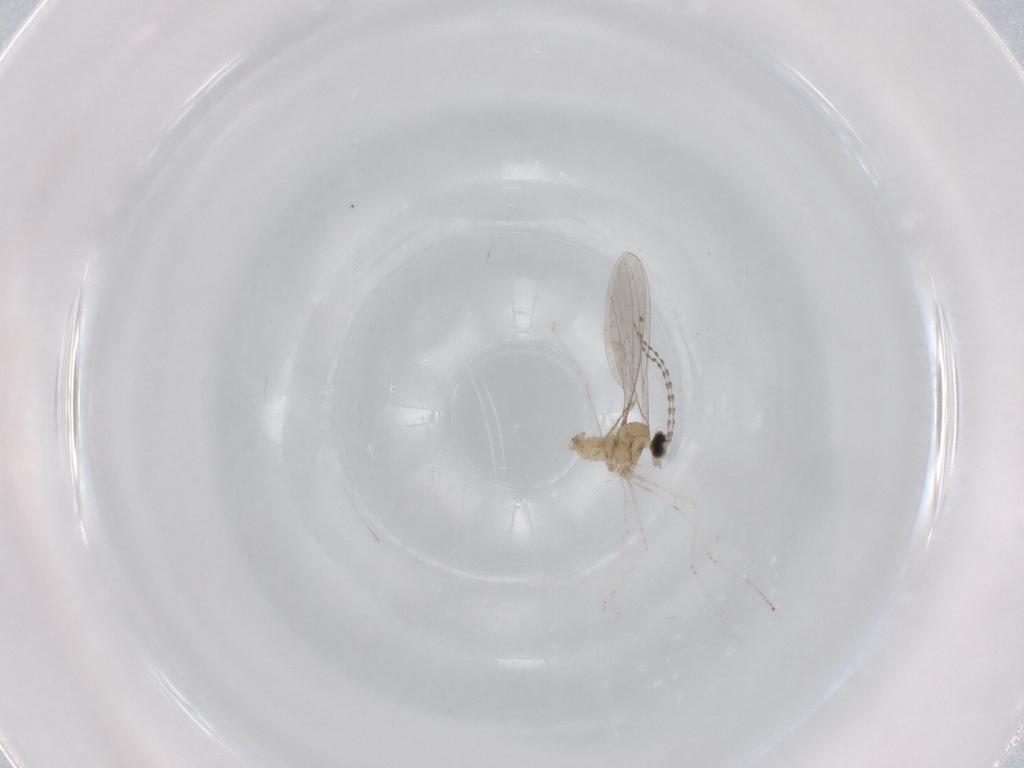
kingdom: Animalia
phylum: Arthropoda
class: Insecta
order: Diptera
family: Cecidomyiidae
